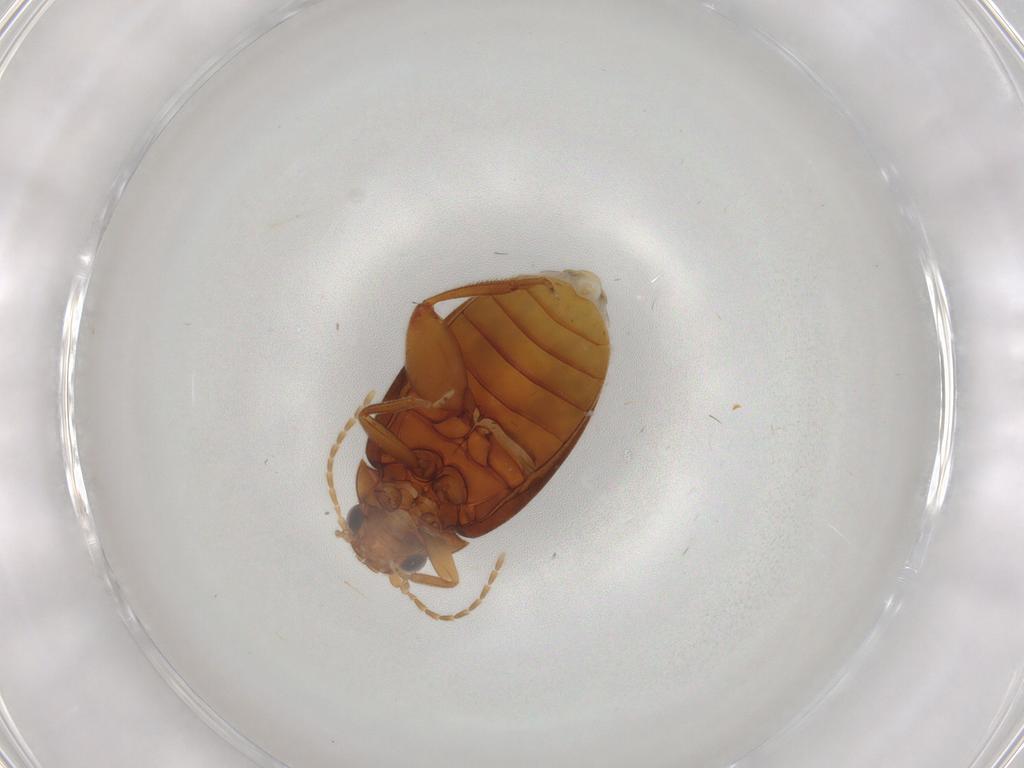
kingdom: Animalia
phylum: Arthropoda
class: Insecta
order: Coleoptera
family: Scirtidae
